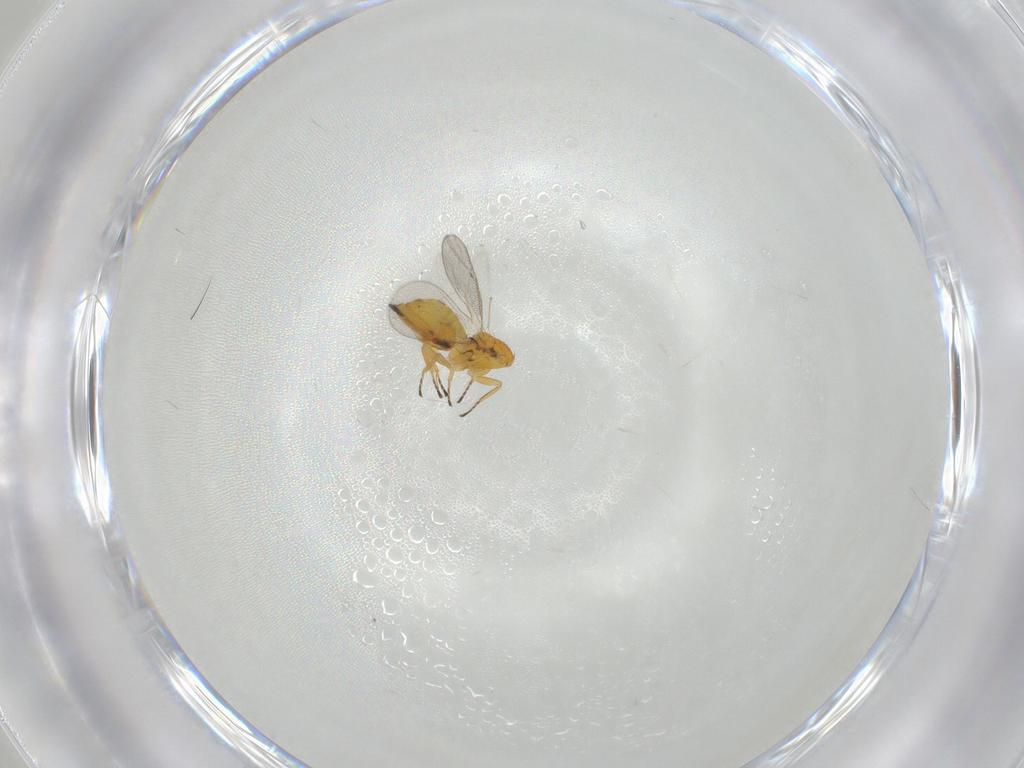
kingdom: Animalia
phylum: Arthropoda
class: Insecta
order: Hymenoptera
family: Eulophidae
